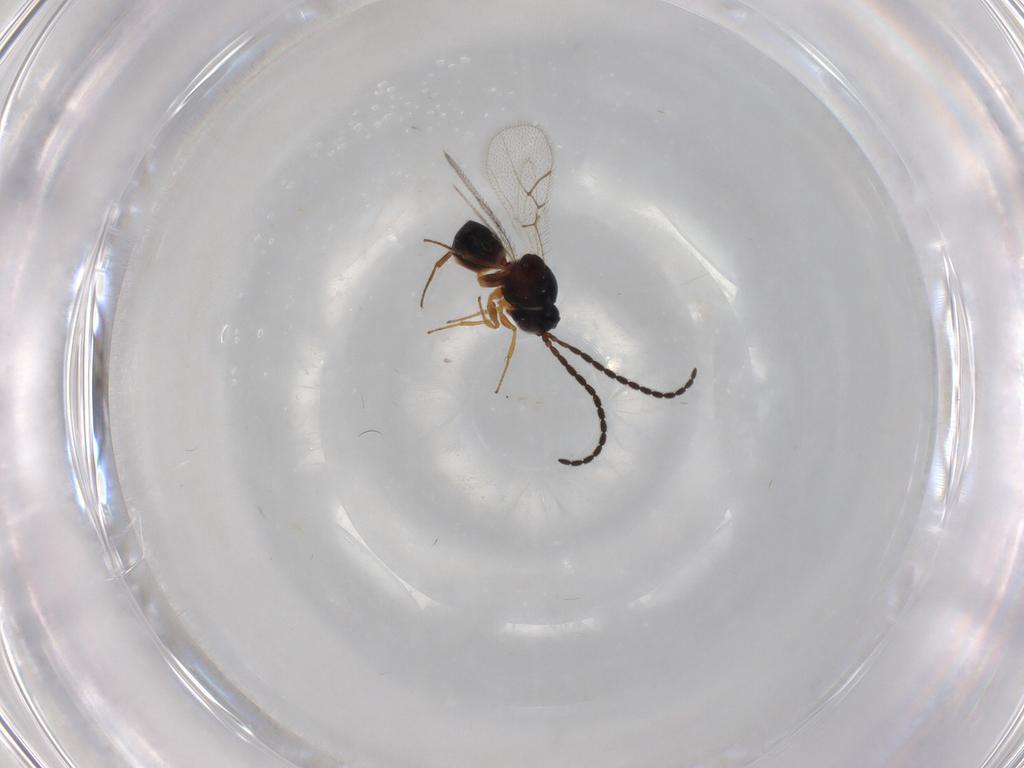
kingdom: Animalia
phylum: Arthropoda
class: Insecta
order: Hymenoptera
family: Figitidae
